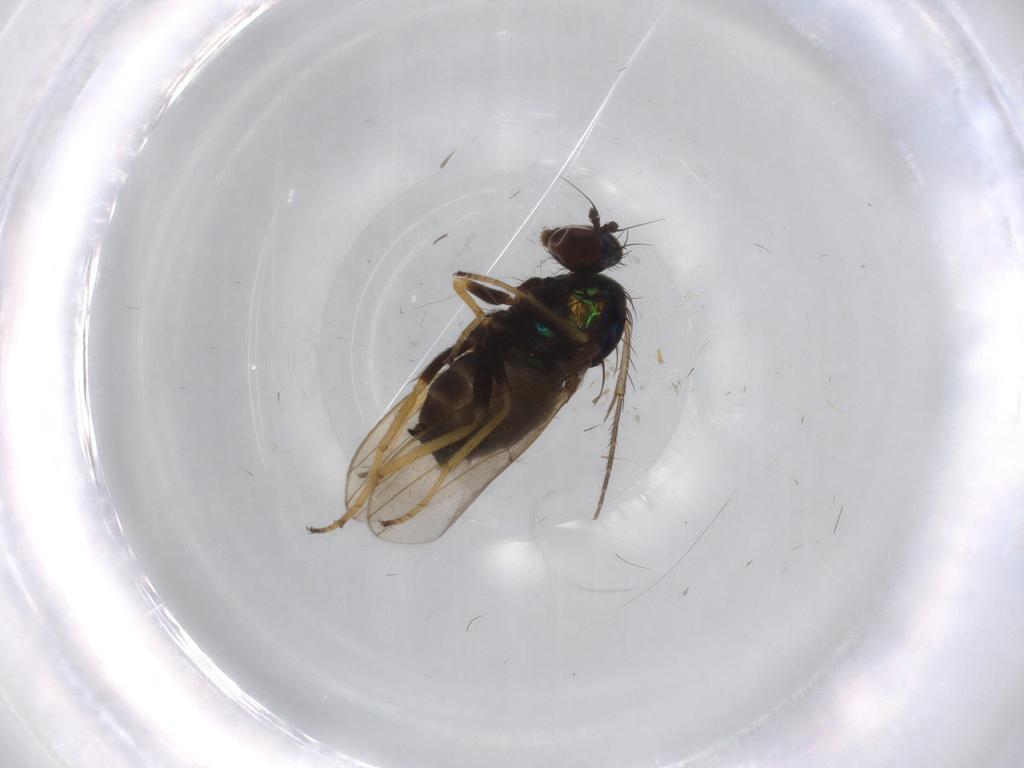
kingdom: Animalia
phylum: Arthropoda
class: Insecta
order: Diptera
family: Dolichopodidae
